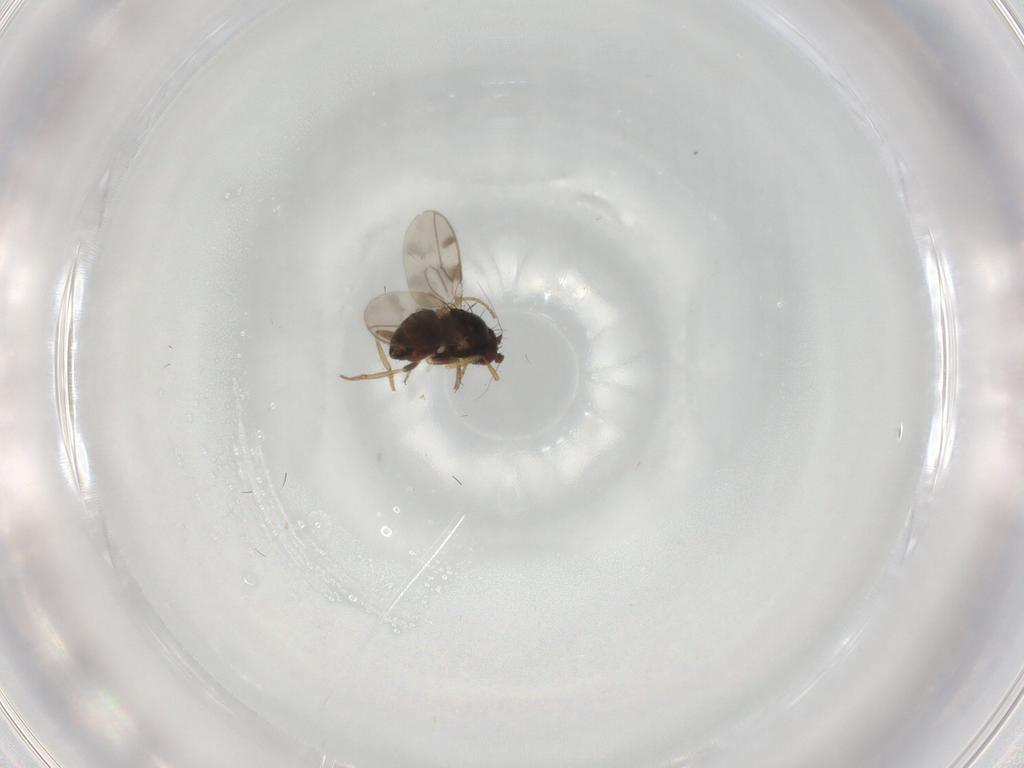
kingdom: Animalia
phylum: Arthropoda
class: Insecta
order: Diptera
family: Sphaeroceridae
